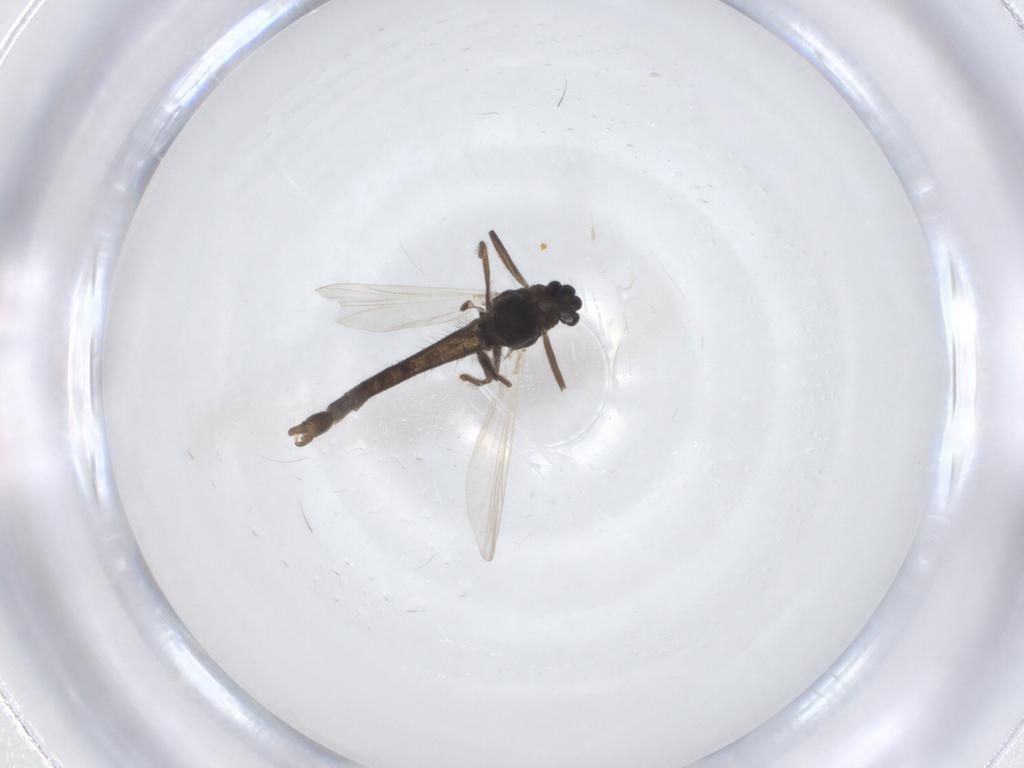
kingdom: Animalia
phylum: Arthropoda
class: Insecta
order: Diptera
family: Chironomidae
